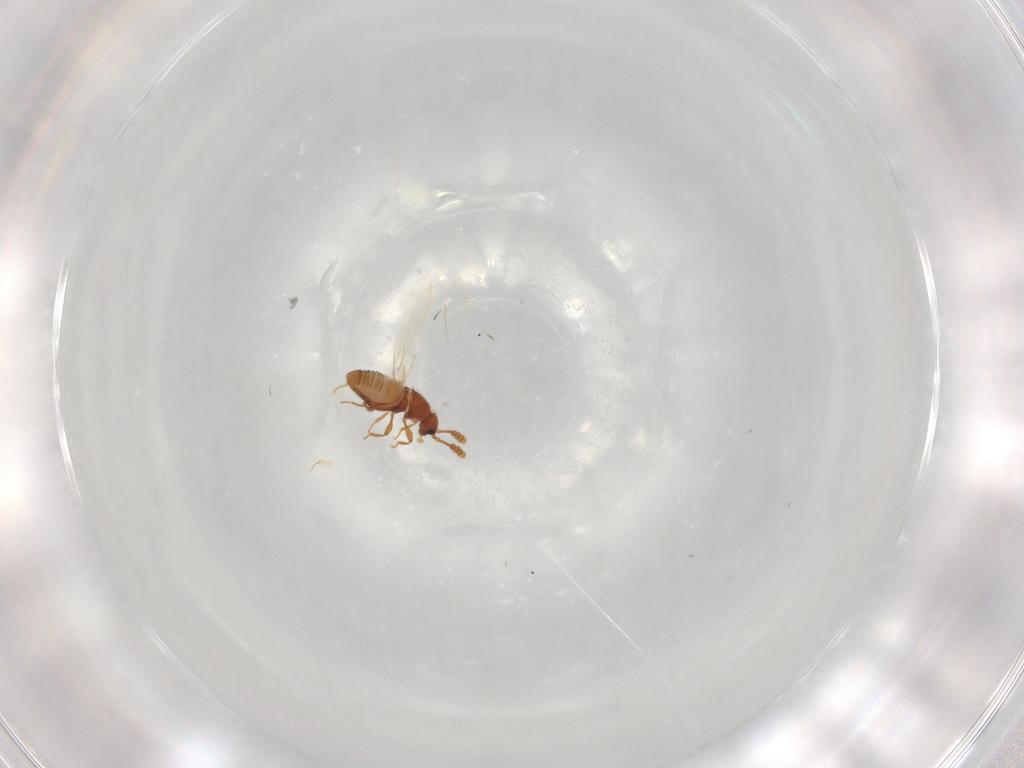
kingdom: Animalia
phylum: Arthropoda
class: Insecta
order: Coleoptera
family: Staphylinidae
